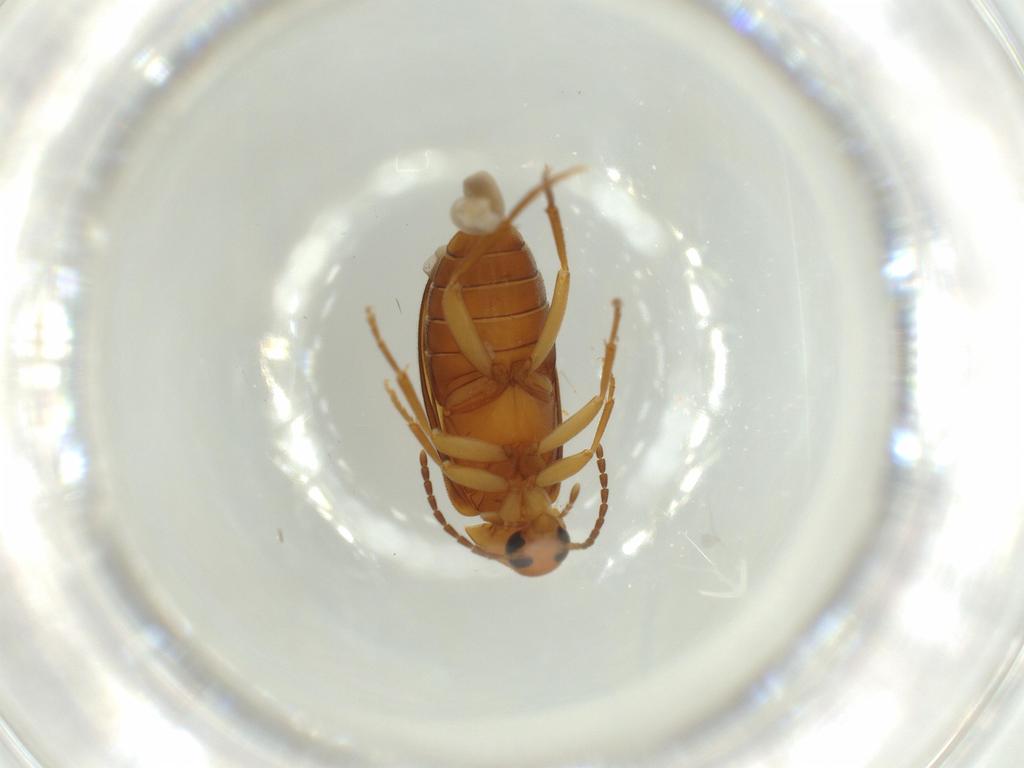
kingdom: Animalia
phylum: Arthropoda
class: Insecta
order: Coleoptera
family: Scraptiidae
